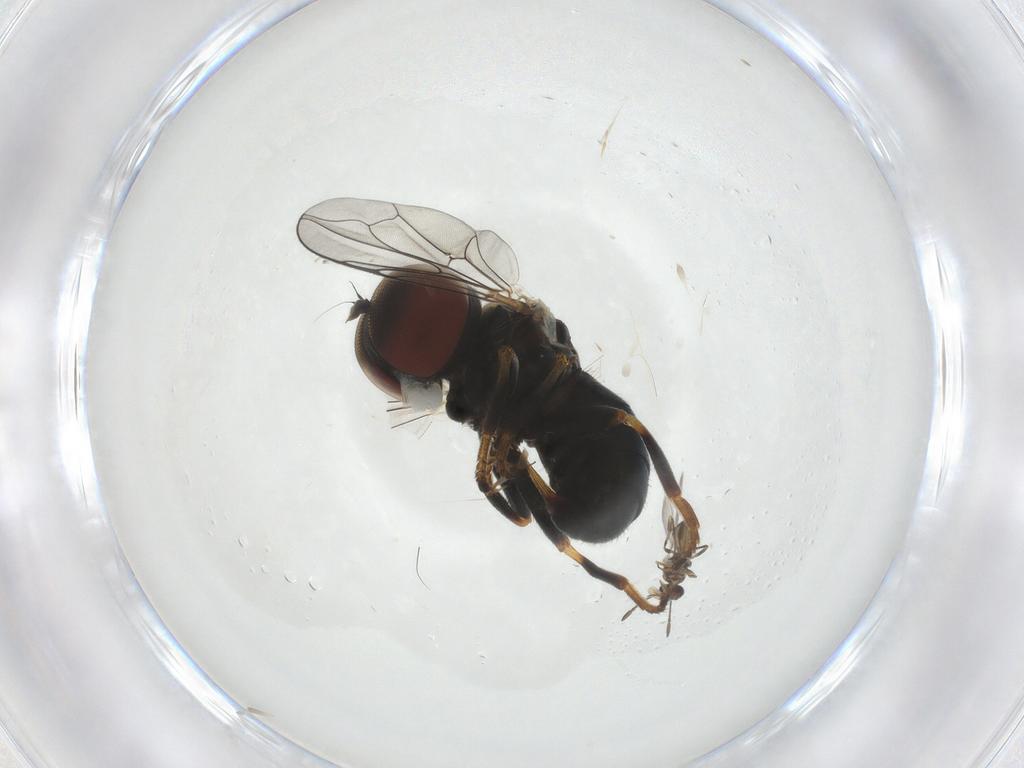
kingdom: Animalia
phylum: Arthropoda
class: Insecta
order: Diptera
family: Pipunculidae
